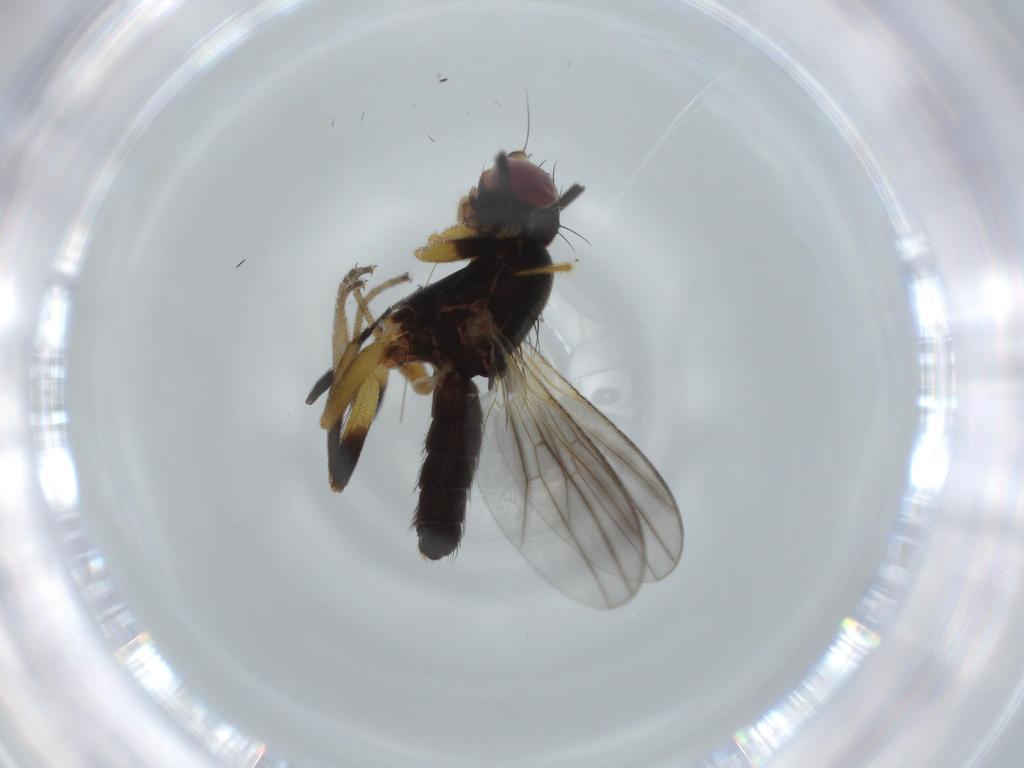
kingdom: Animalia
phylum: Arthropoda
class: Insecta
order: Diptera
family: Clusiidae
